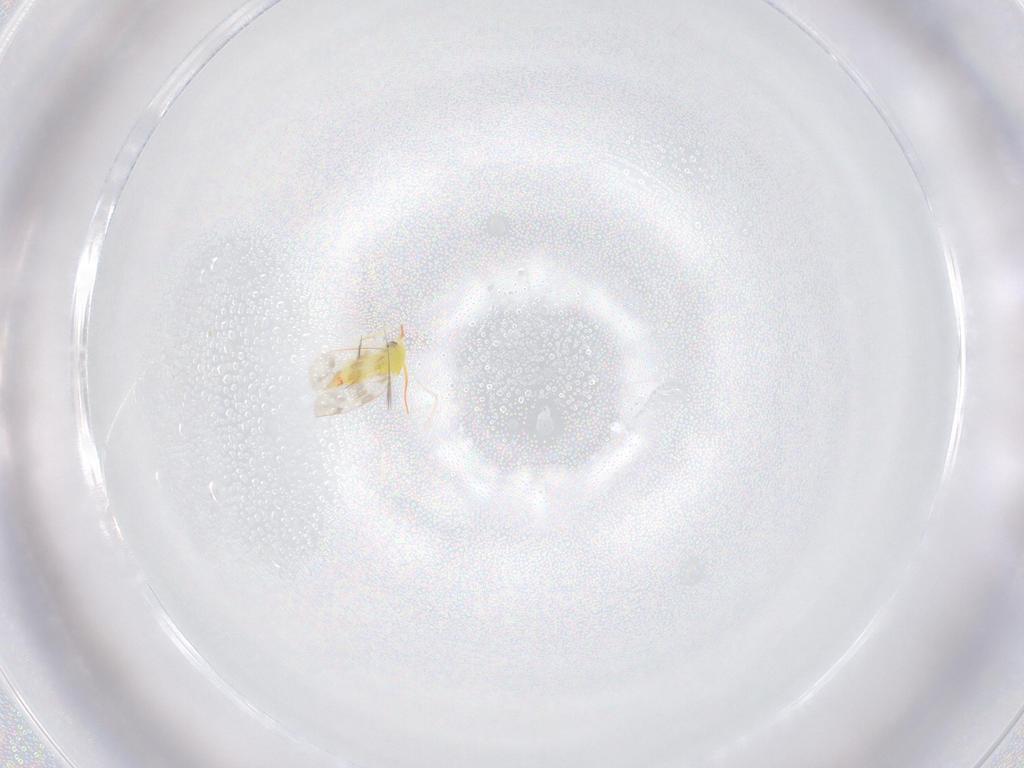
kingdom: Animalia
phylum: Arthropoda
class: Insecta
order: Hemiptera
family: Aleyrodidae
